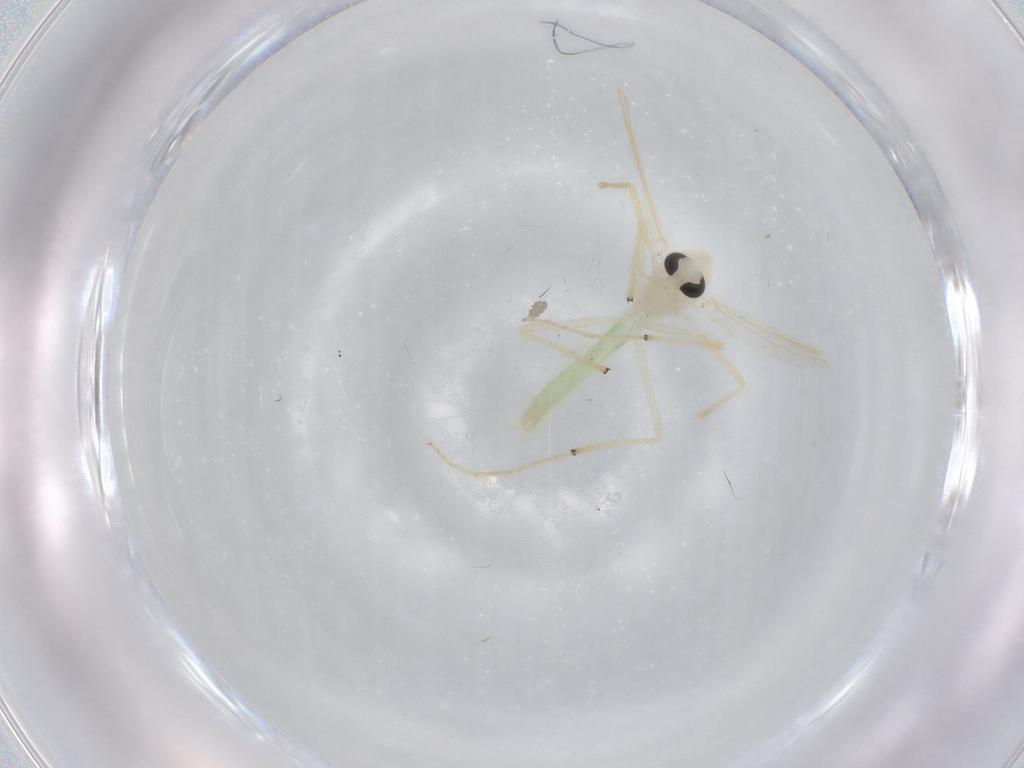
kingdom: Animalia
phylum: Arthropoda
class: Insecta
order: Diptera
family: Chironomidae
